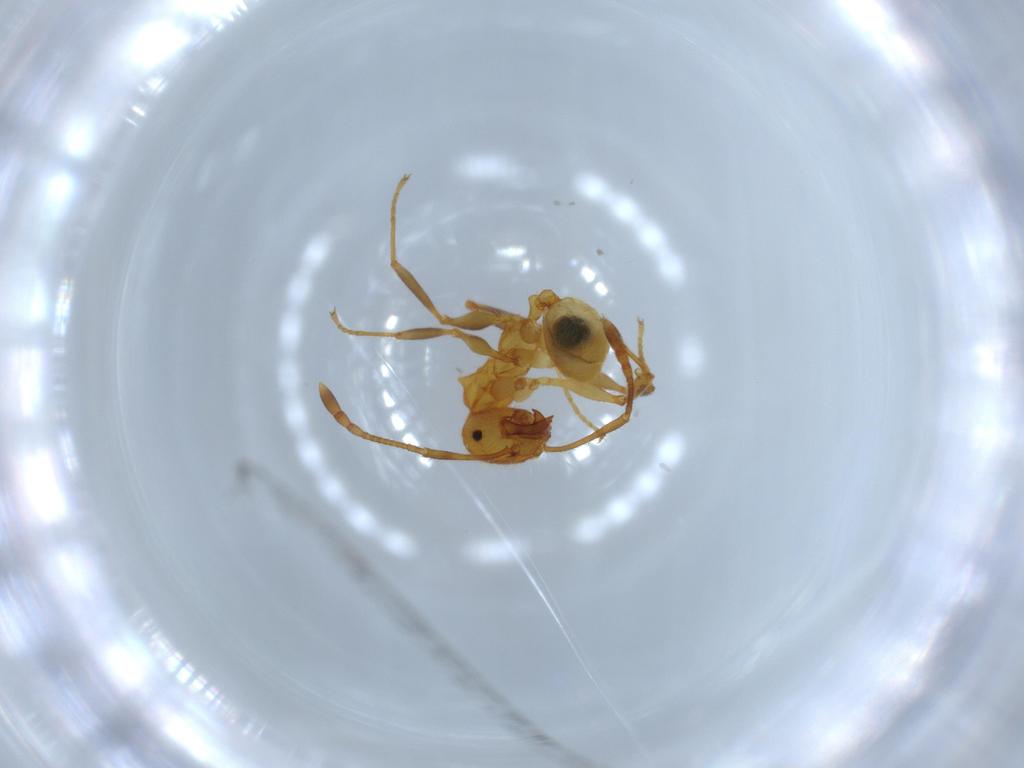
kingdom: Animalia
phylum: Arthropoda
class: Insecta
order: Hymenoptera
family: Formicidae
